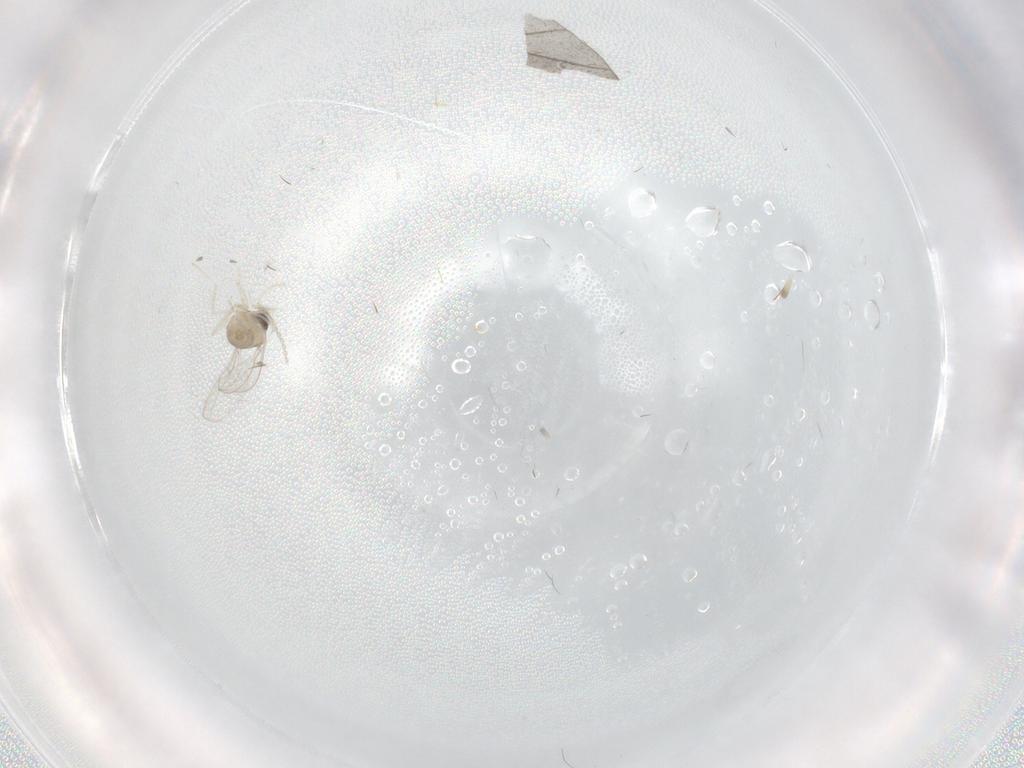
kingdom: Animalia
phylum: Arthropoda
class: Insecta
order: Diptera
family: Cecidomyiidae
